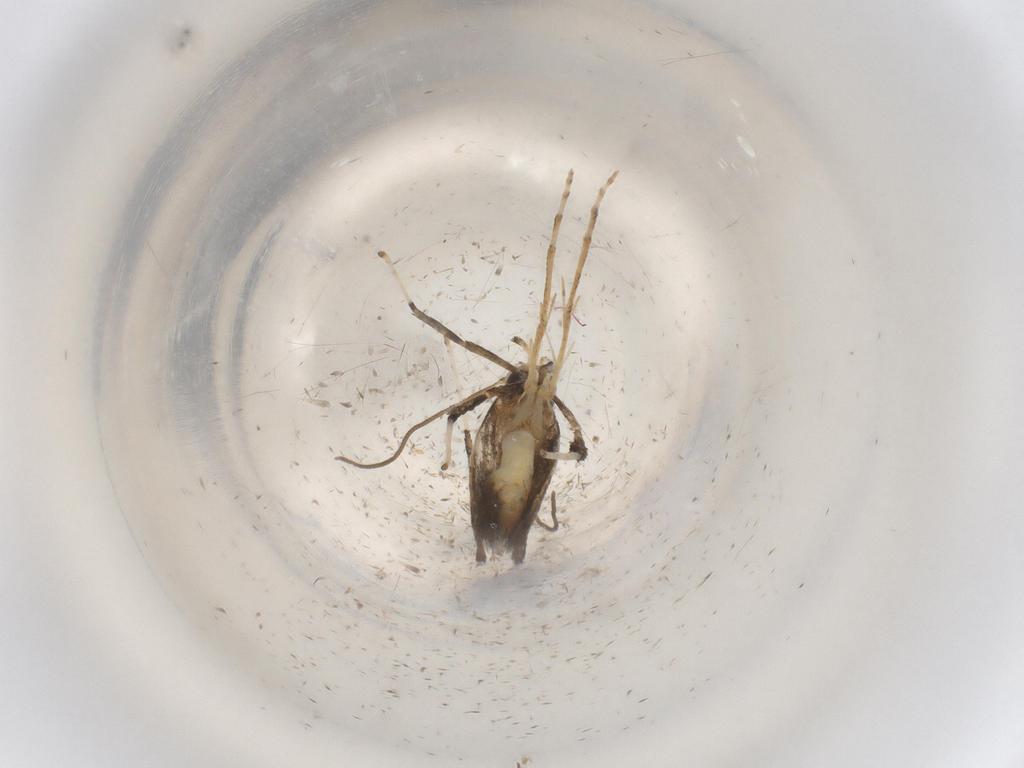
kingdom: Animalia
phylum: Arthropoda
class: Insecta
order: Lepidoptera
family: Gracillariidae
